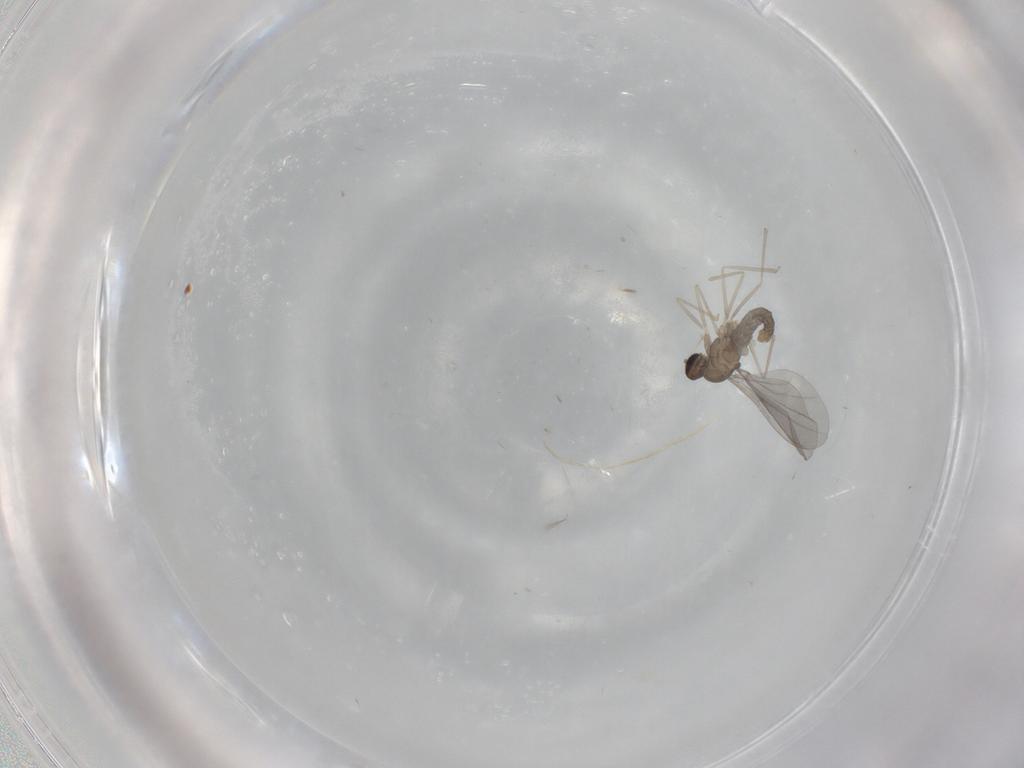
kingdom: Animalia
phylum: Arthropoda
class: Insecta
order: Diptera
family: Cecidomyiidae
